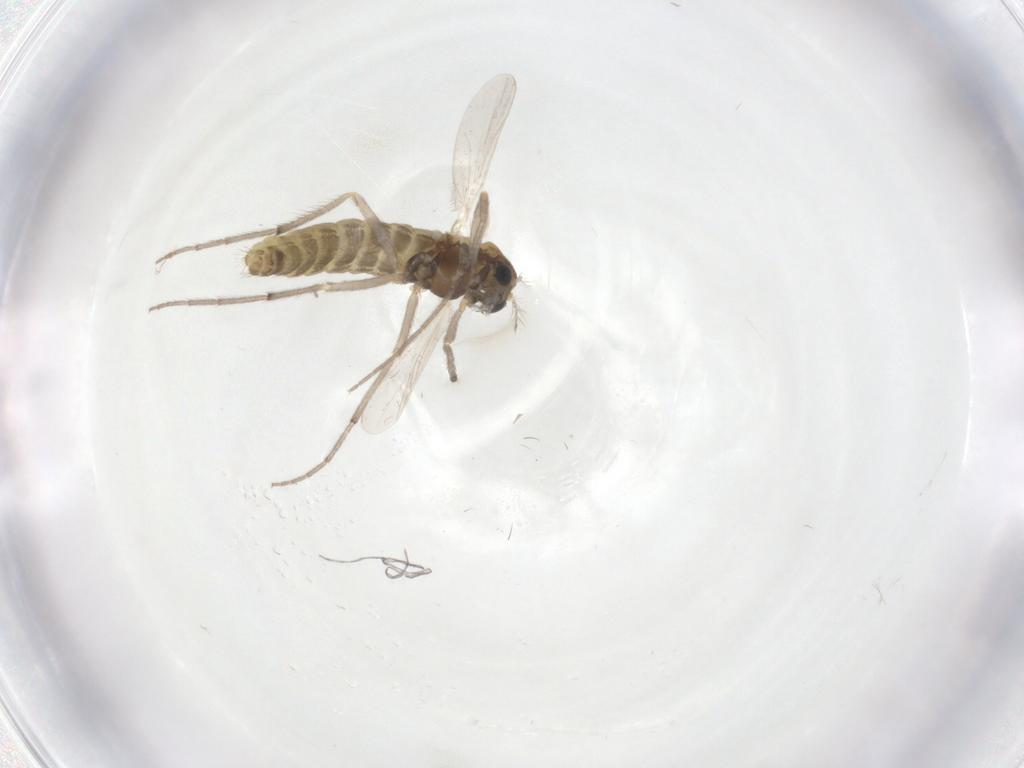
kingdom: Animalia
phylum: Arthropoda
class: Insecta
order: Diptera
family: Chironomidae
